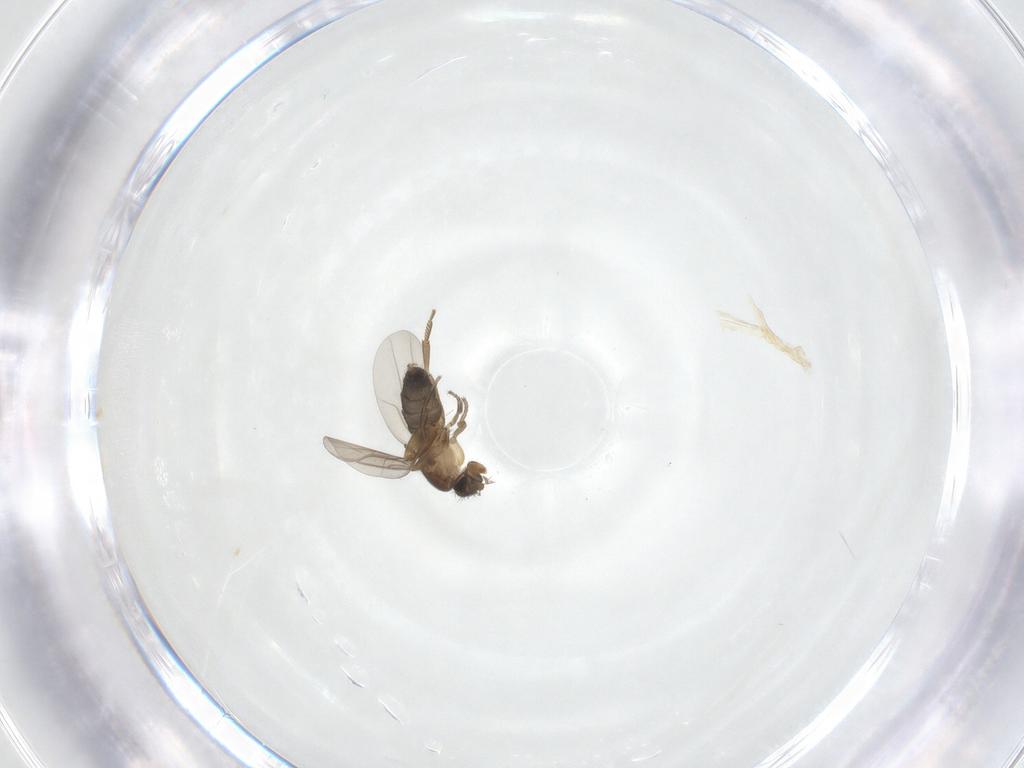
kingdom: Animalia
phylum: Arthropoda
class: Insecta
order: Diptera
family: Phoridae
